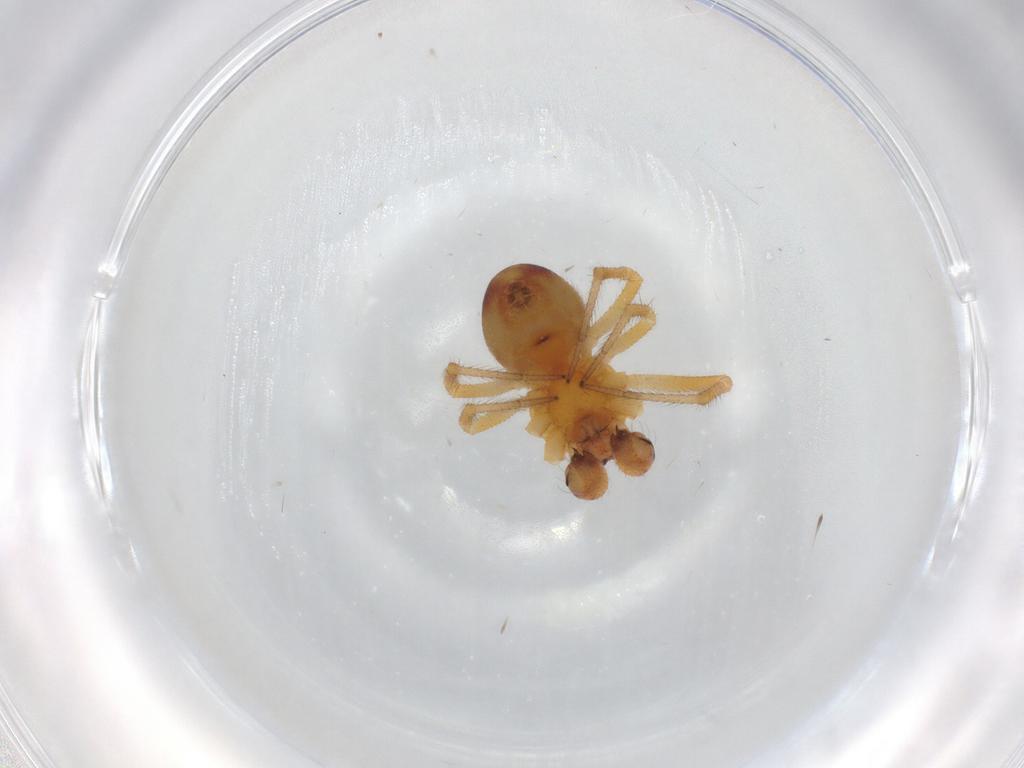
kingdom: Animalia
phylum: Arthropoda
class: Arachnida
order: Araneae
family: Theridiidae
